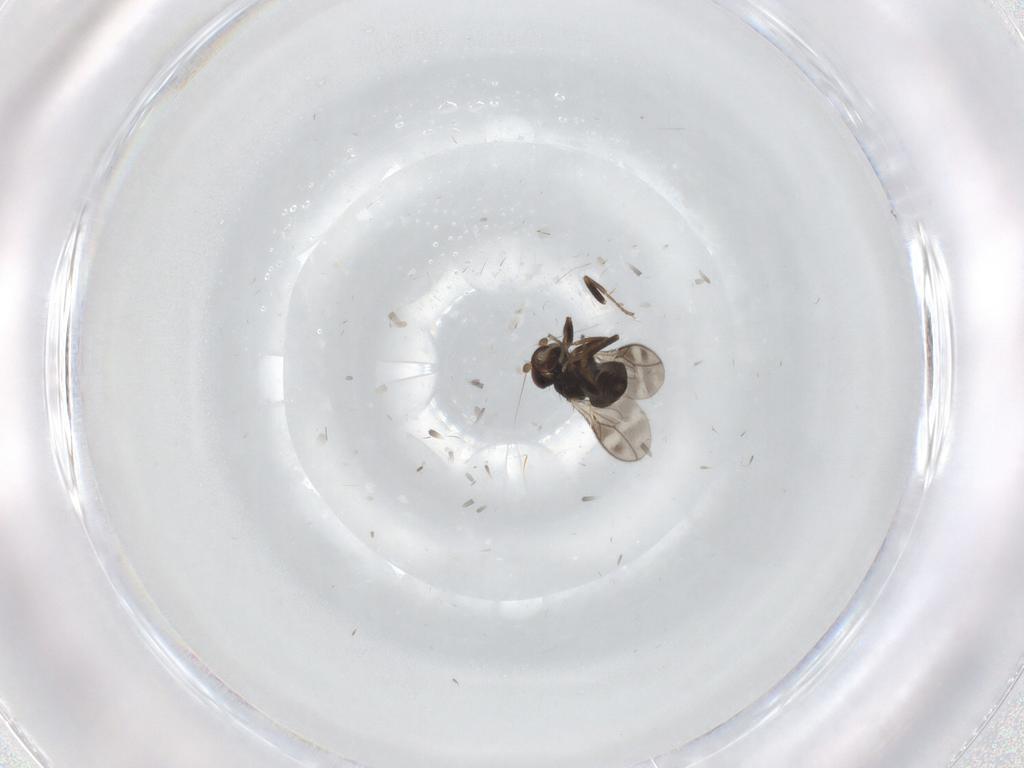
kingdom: Animalia
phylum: Arthropoda
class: Insecta
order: Diptera
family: Sphaeroceridae
